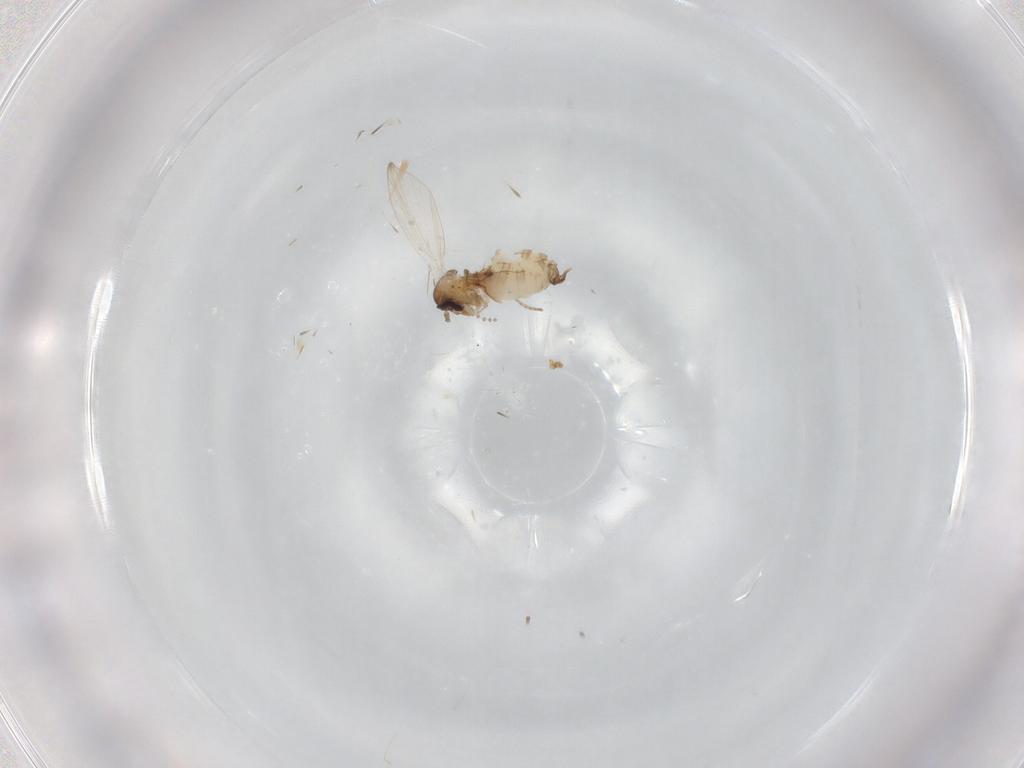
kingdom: Animalia
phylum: Arthropoda
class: Insecta
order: Diptera
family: Psychodidae
